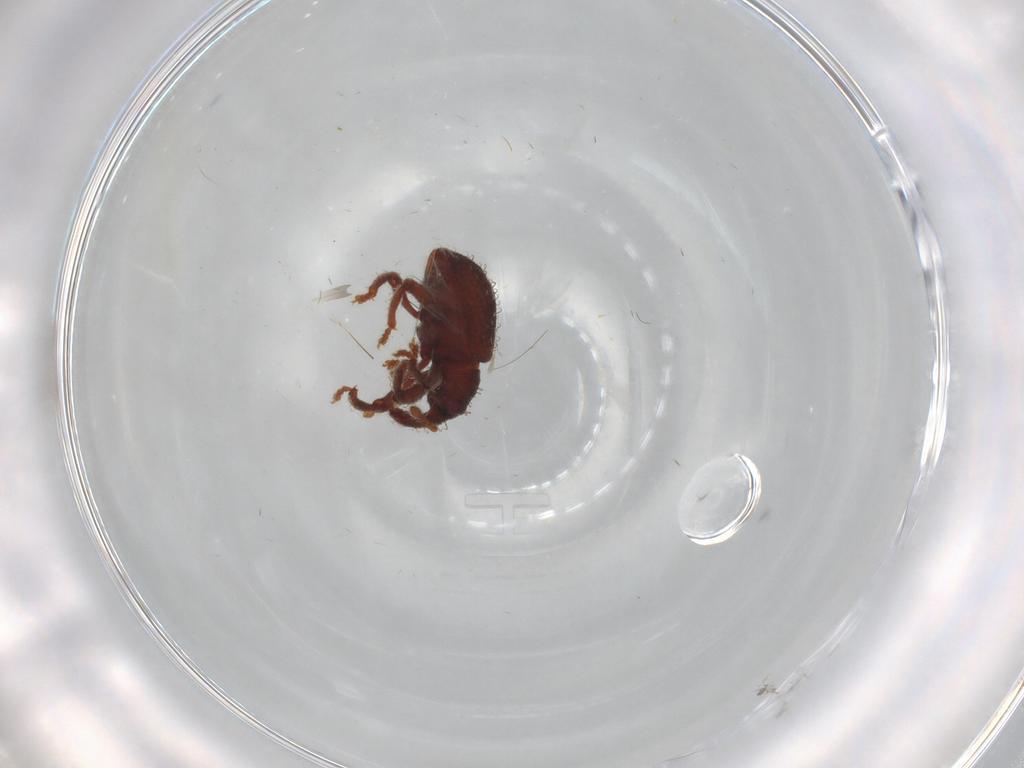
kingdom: Animalia
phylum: Arthropoda
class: Insecta
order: Coleoptera
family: Curculionidae
